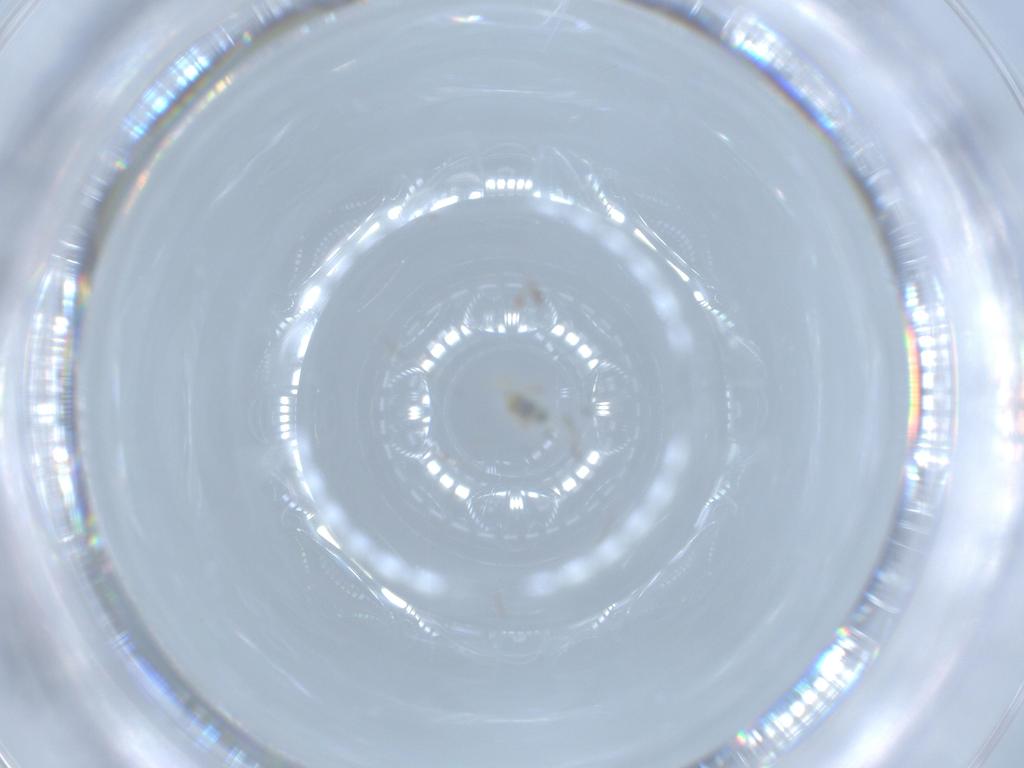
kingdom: Animalia
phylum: Arthropoda
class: Collembola
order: Symphypleona
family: Bourletiellidae
